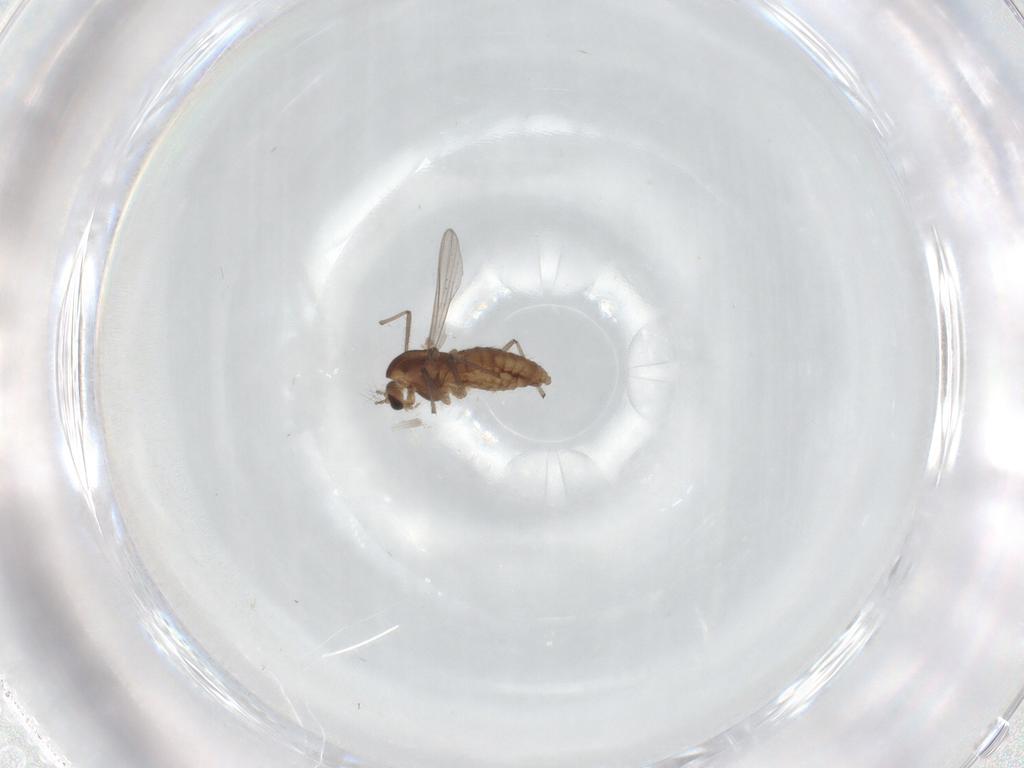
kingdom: Animalia
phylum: Arthropoda
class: Insecta
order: Diptera
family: Chironomidae
